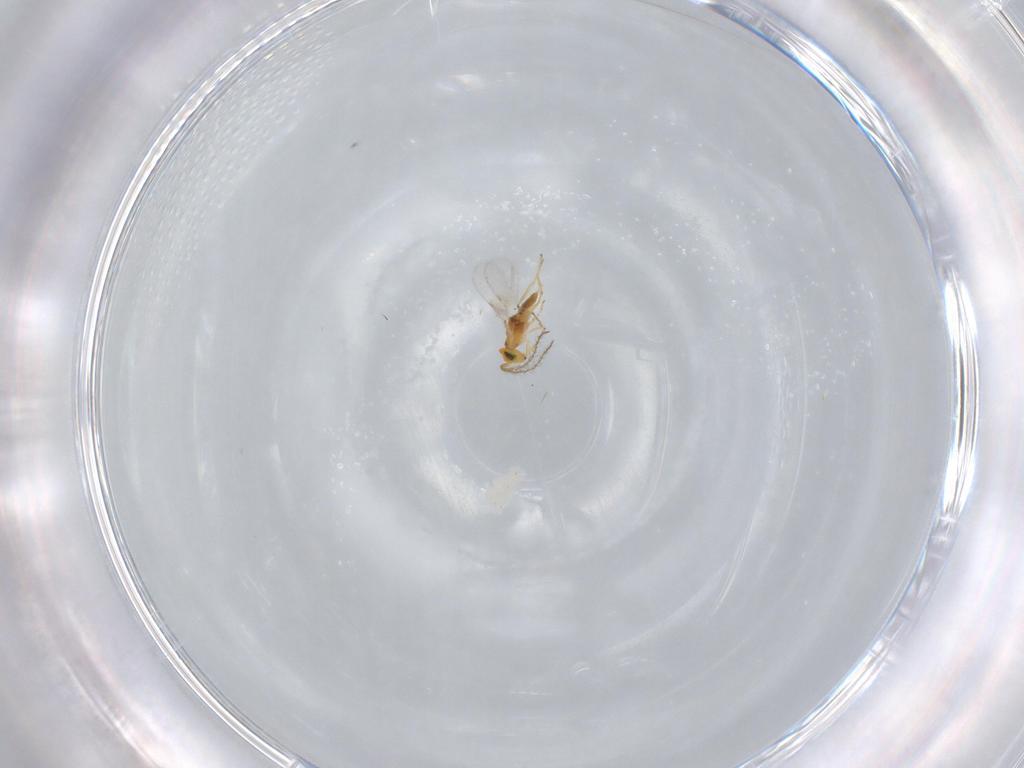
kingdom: Animalia
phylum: Arthropoda
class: Insecta
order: Hymenoptera
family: Encyrtidae
